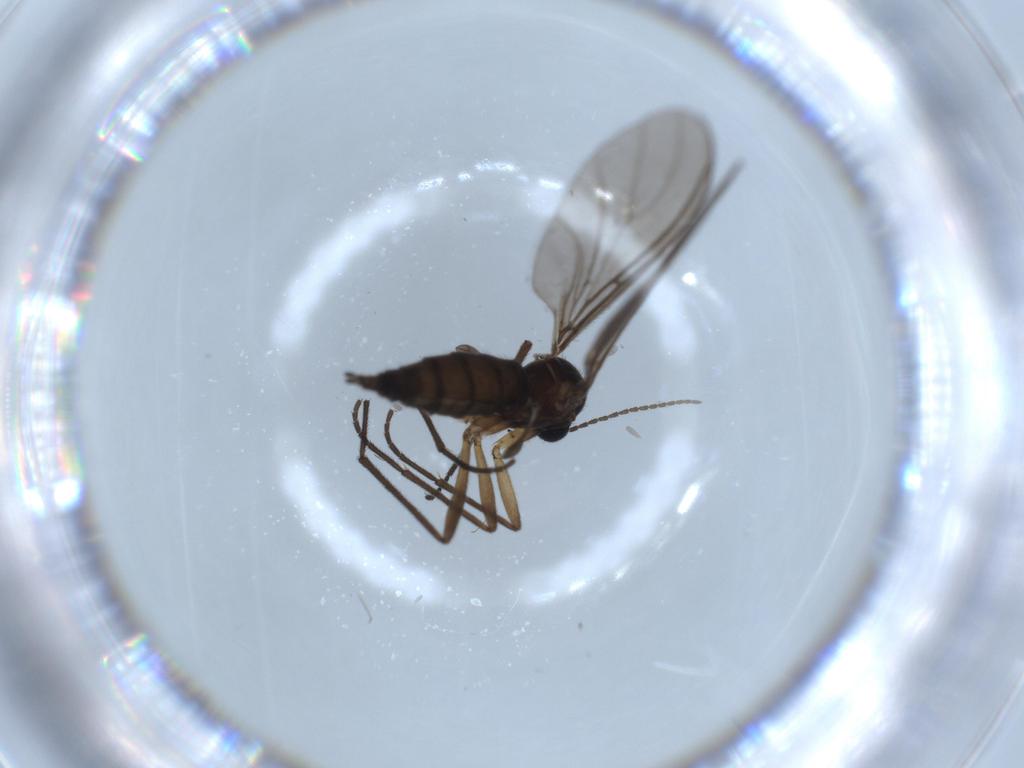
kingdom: Animalia
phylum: Arthropoda
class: Insecta
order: Diptera
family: Sciaridae
